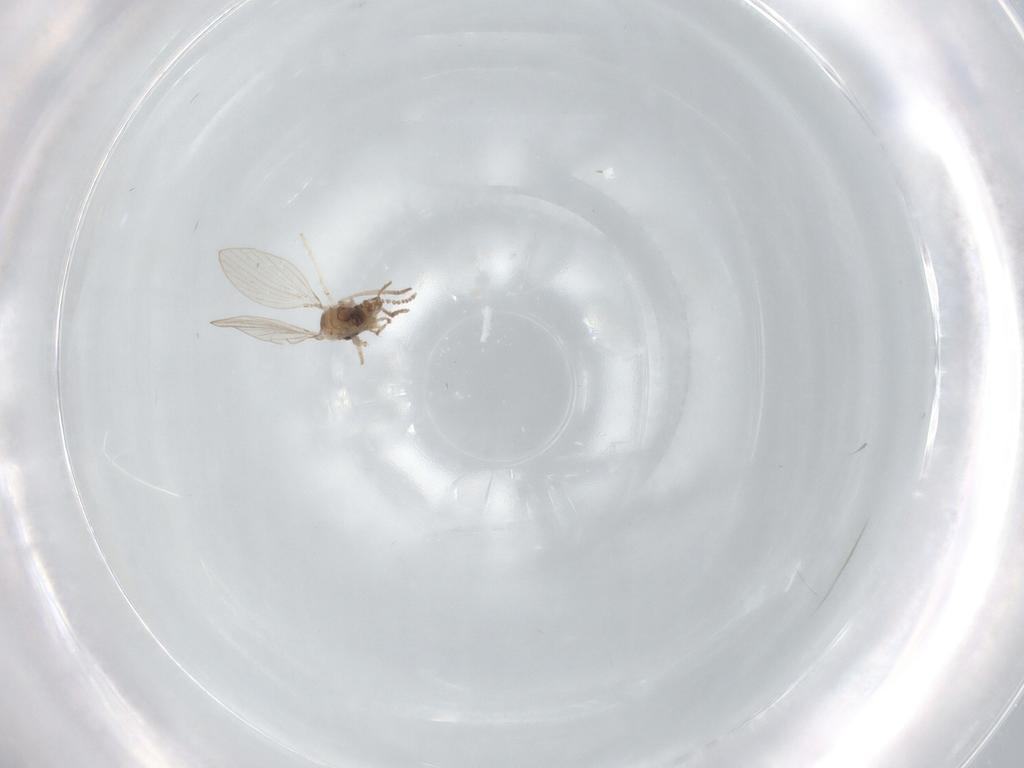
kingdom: Animalia
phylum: Arthropoda
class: Insecta
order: Diptera
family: Psychodidae
